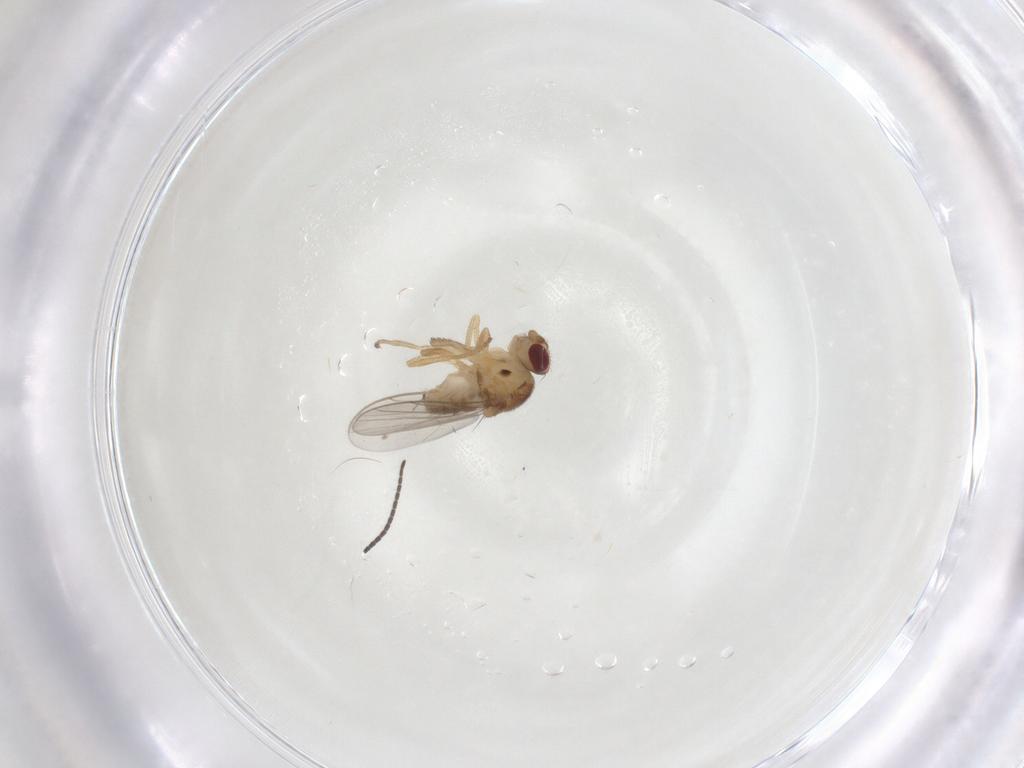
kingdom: Animalia
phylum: Arthropoda
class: Insecta
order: Diptera
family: Chloropidae
